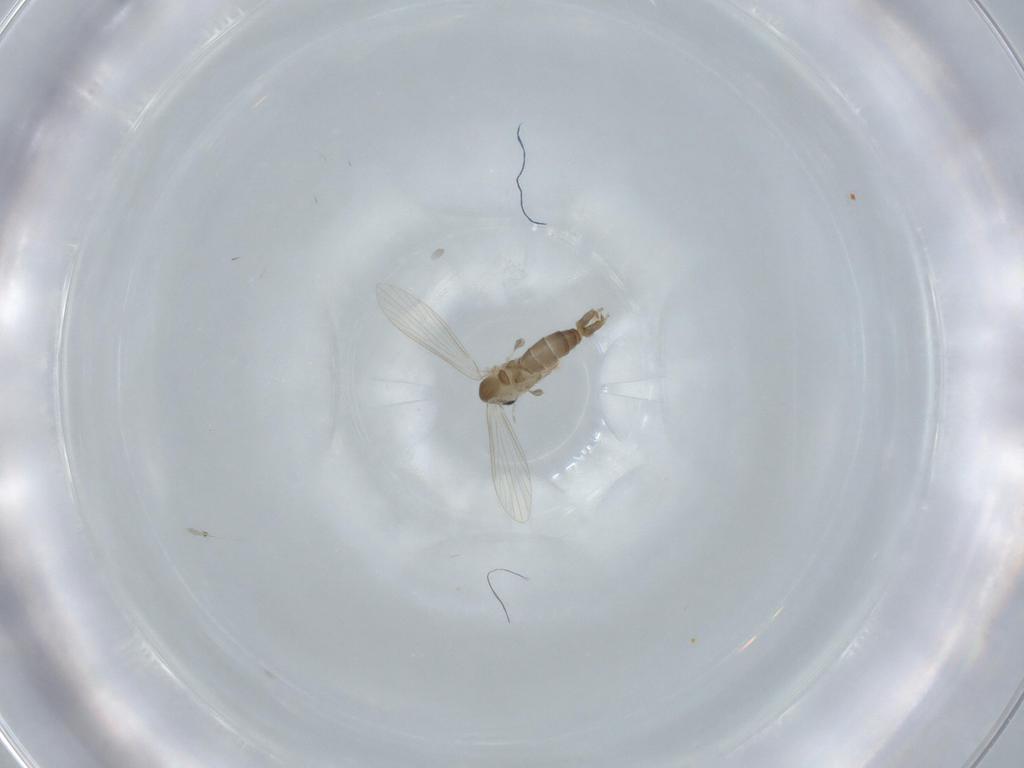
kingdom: Animalia
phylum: Arthropoda
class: Insecta
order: Diptera
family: Psychodidae
